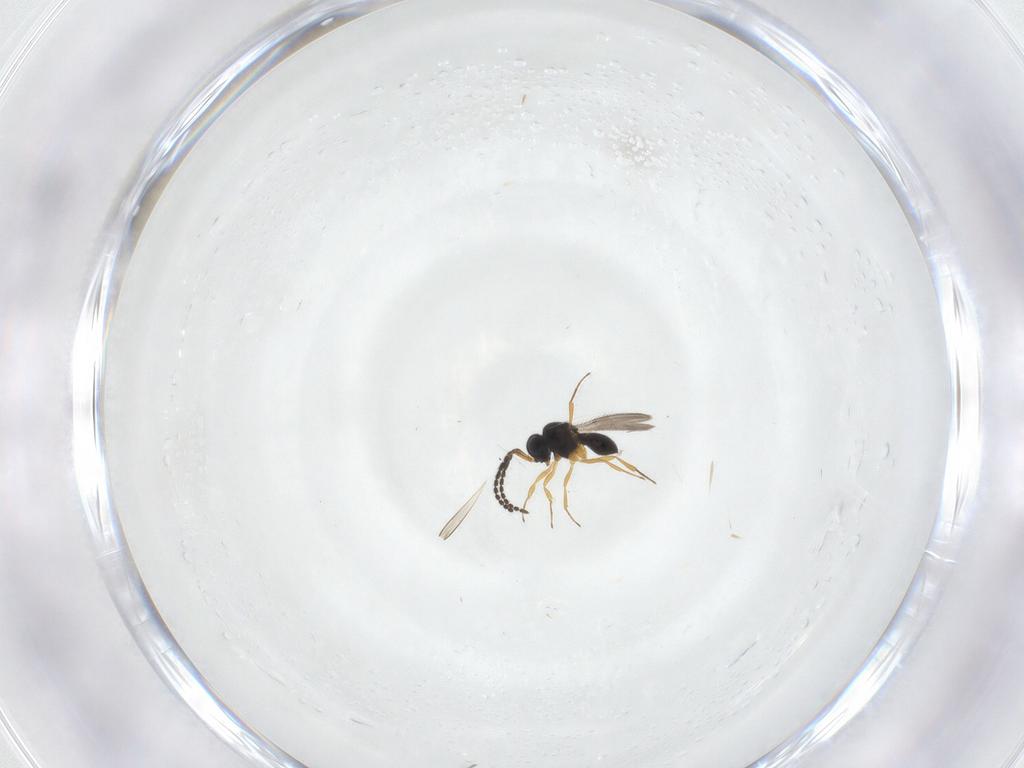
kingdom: Animalia
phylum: Arthropoda
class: Insecta
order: Hymenoptera
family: Scelionidae
